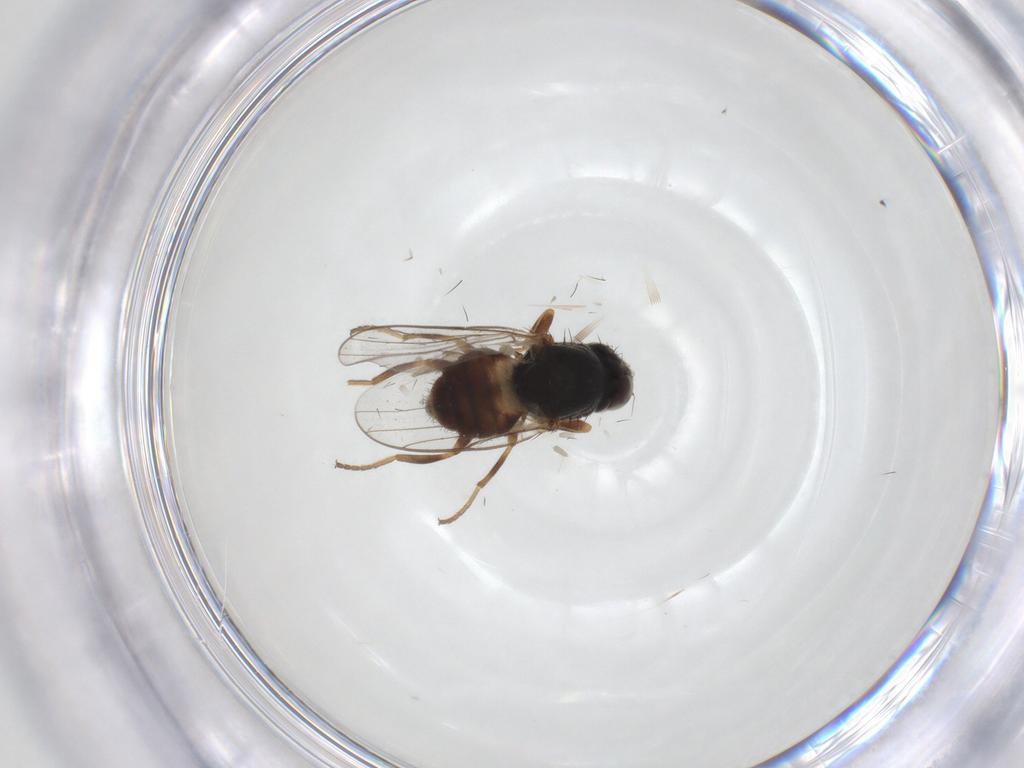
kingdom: Animalia
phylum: Arthropoda
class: Insecta
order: Diptera
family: Chloropidae
